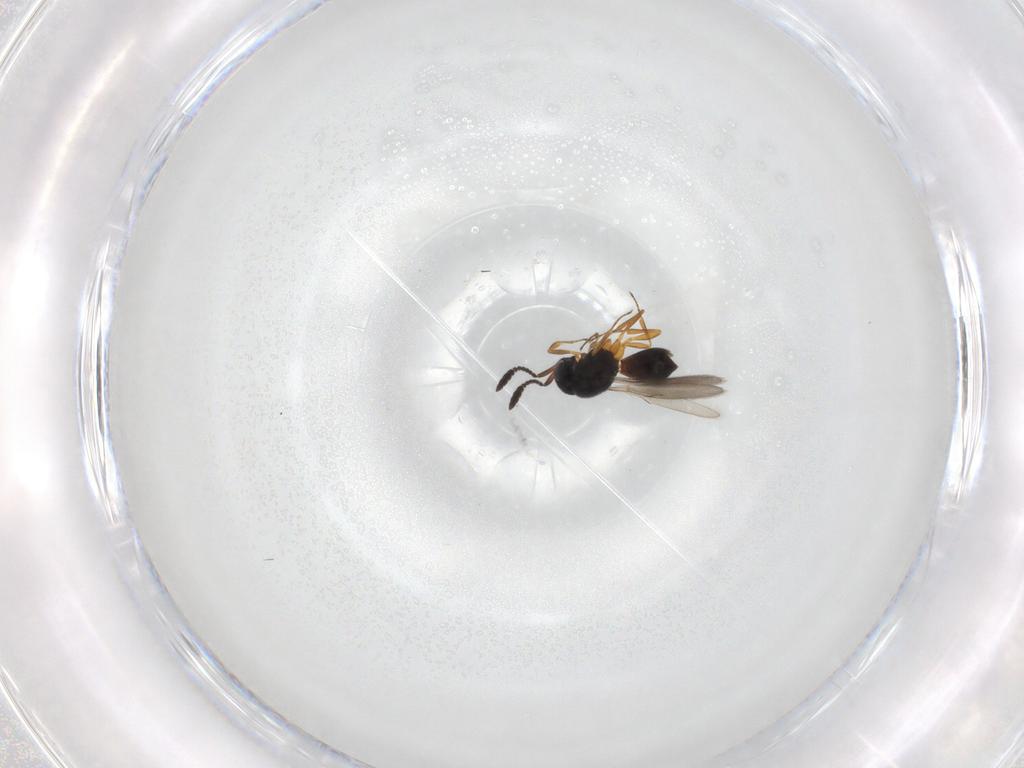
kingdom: Animalia
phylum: Arthropoda
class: Insecta
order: Hymenoptera
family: Scelionidae
